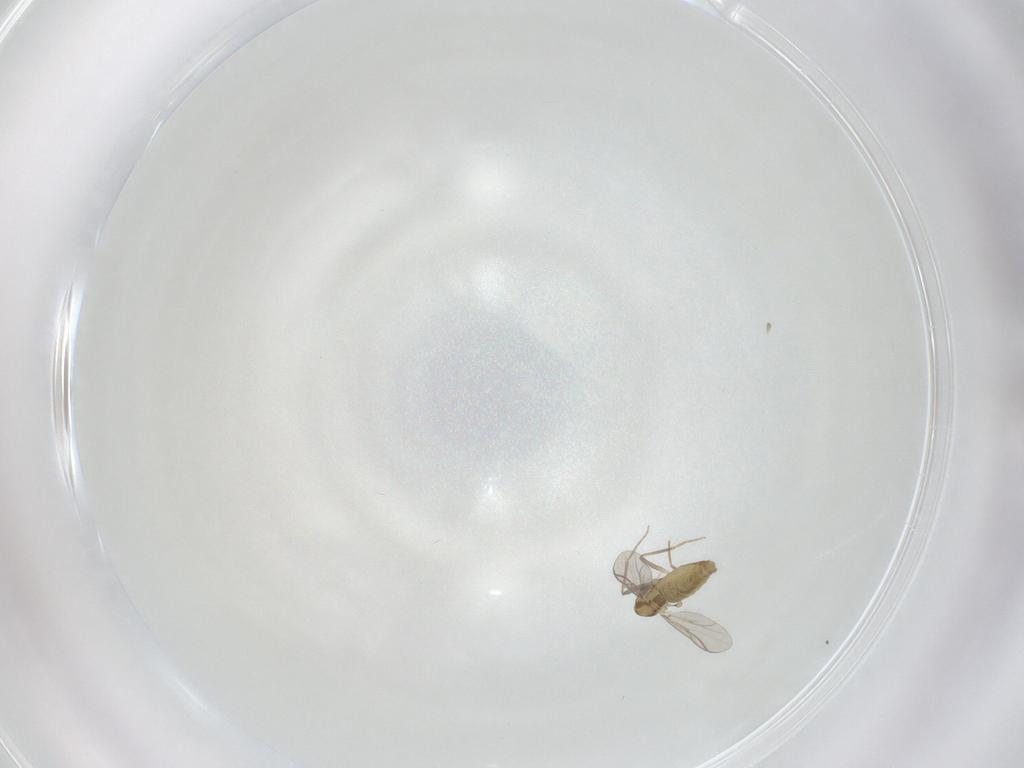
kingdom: Animalia
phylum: Arthropoda
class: Insecta
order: Diptera
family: Chironomidae
